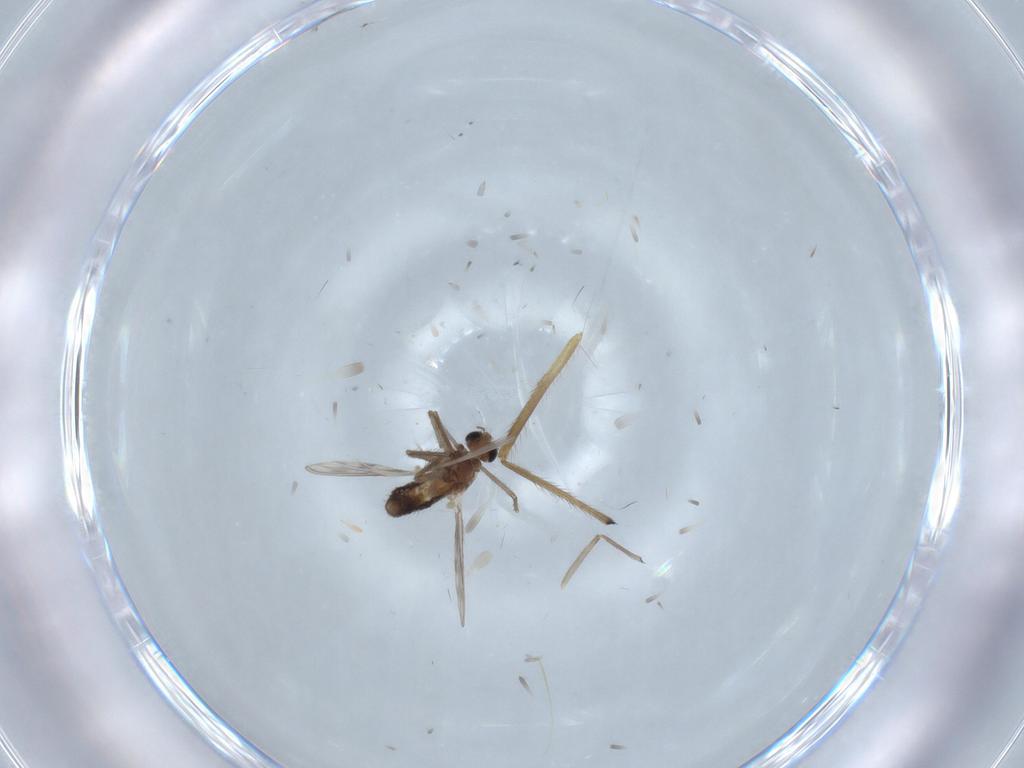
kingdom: Animalia
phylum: Arthropoda
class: Insecta
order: Diptera
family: Chironomidae
